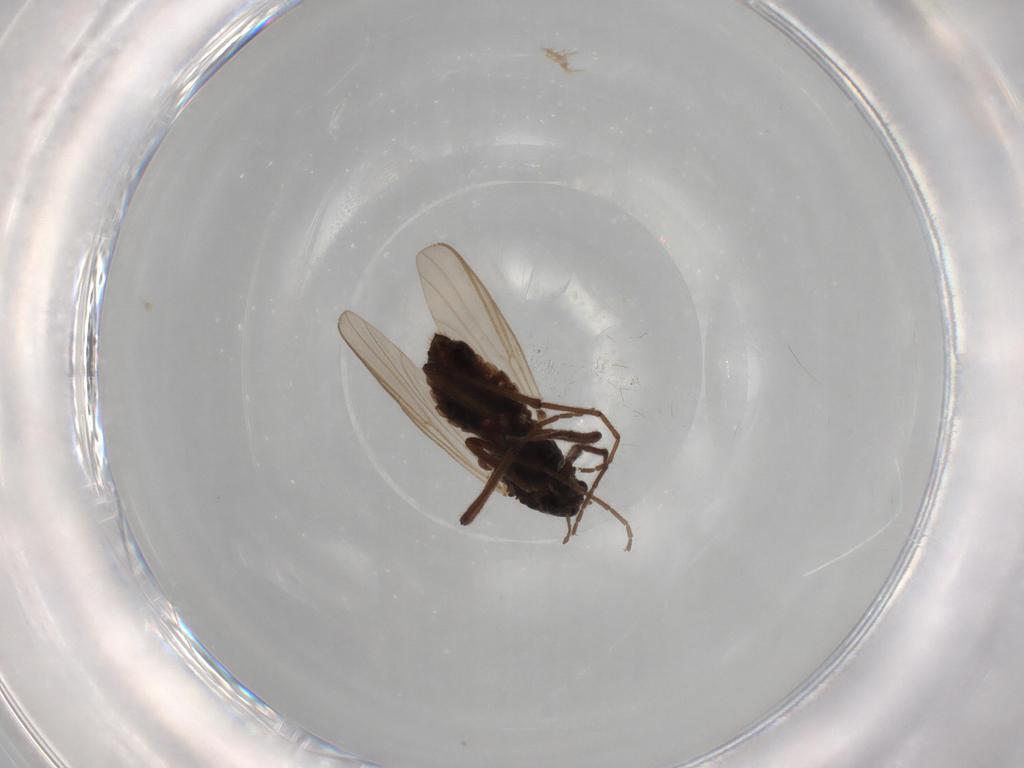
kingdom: Animalia
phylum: Arthropoda
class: Insecta
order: Diptera
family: Chironomidae
